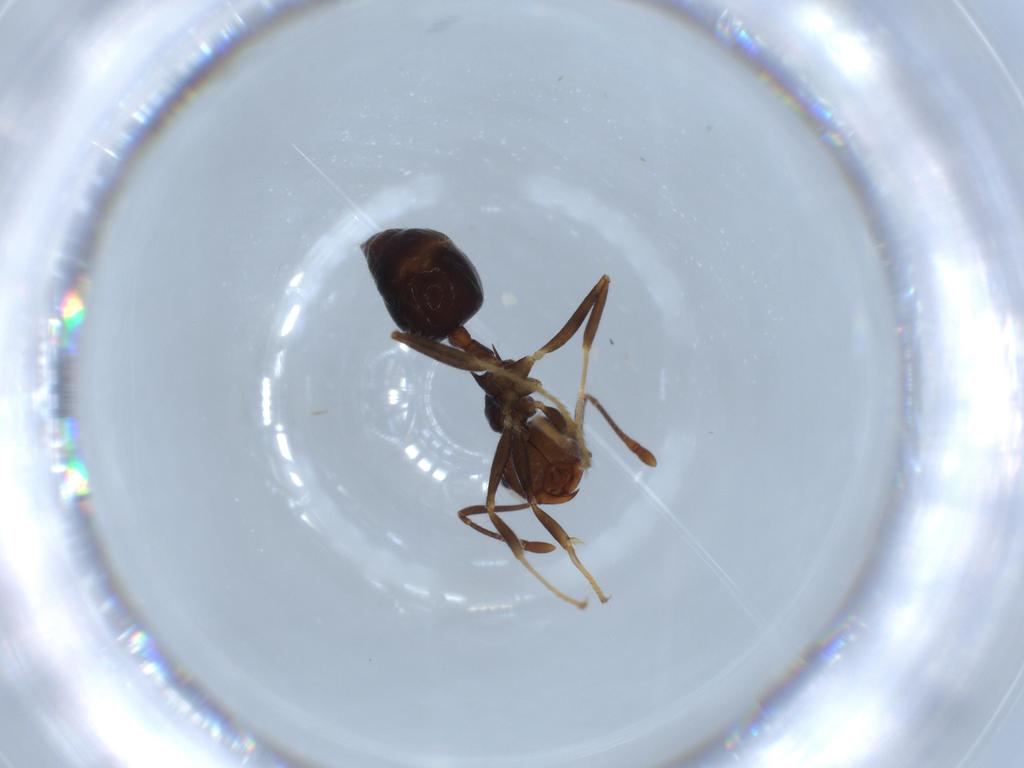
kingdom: Animalia
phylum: Arthropoda
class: Insecta
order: Hymenoptera
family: Formicidae
